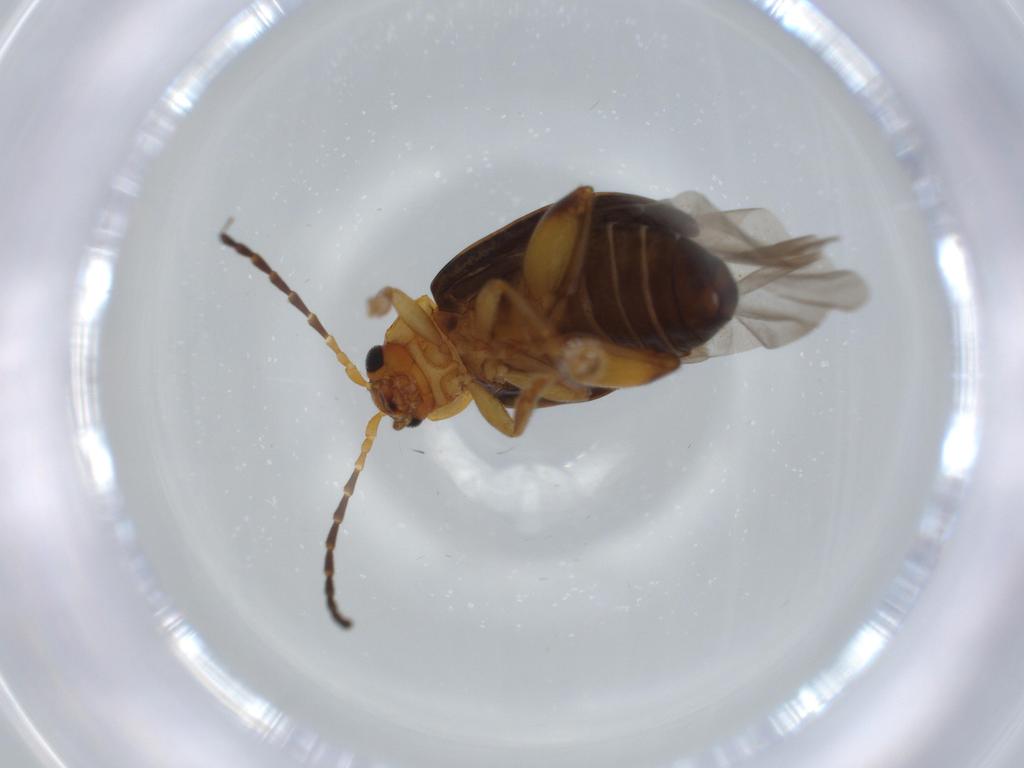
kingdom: Animalia
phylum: Arthropoda
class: Insecta
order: Coleoptera
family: Chrysomelidae
